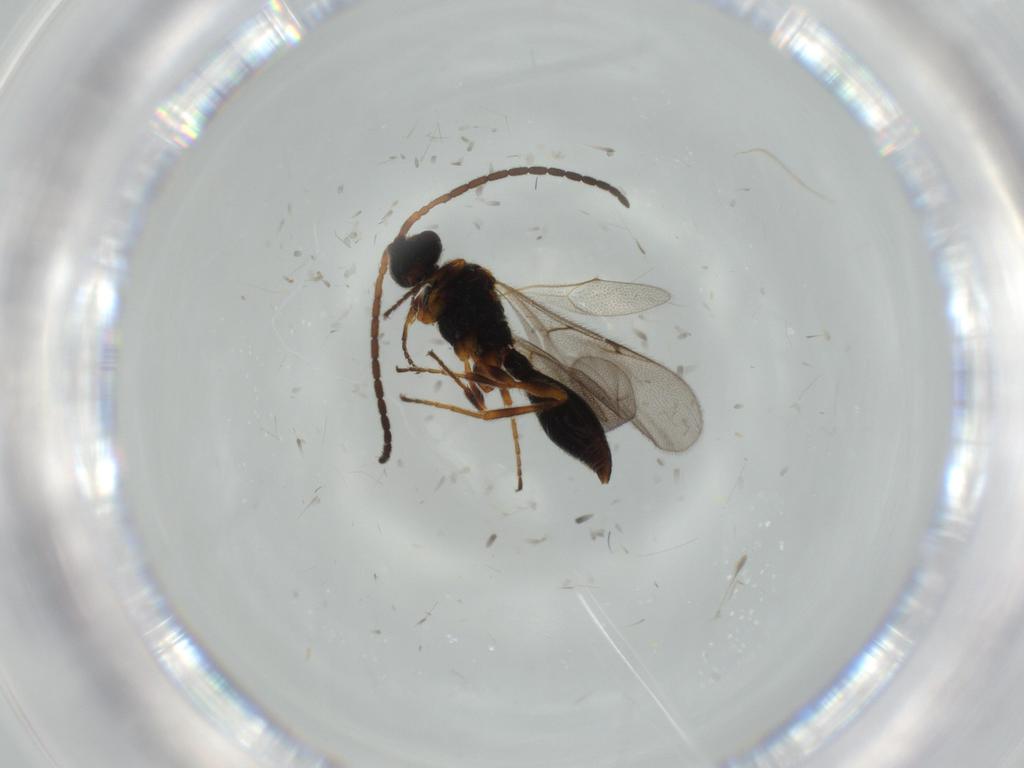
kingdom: Animalia
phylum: Arthropoda
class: Insecta
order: Hymenoptera
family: Diapriidae
